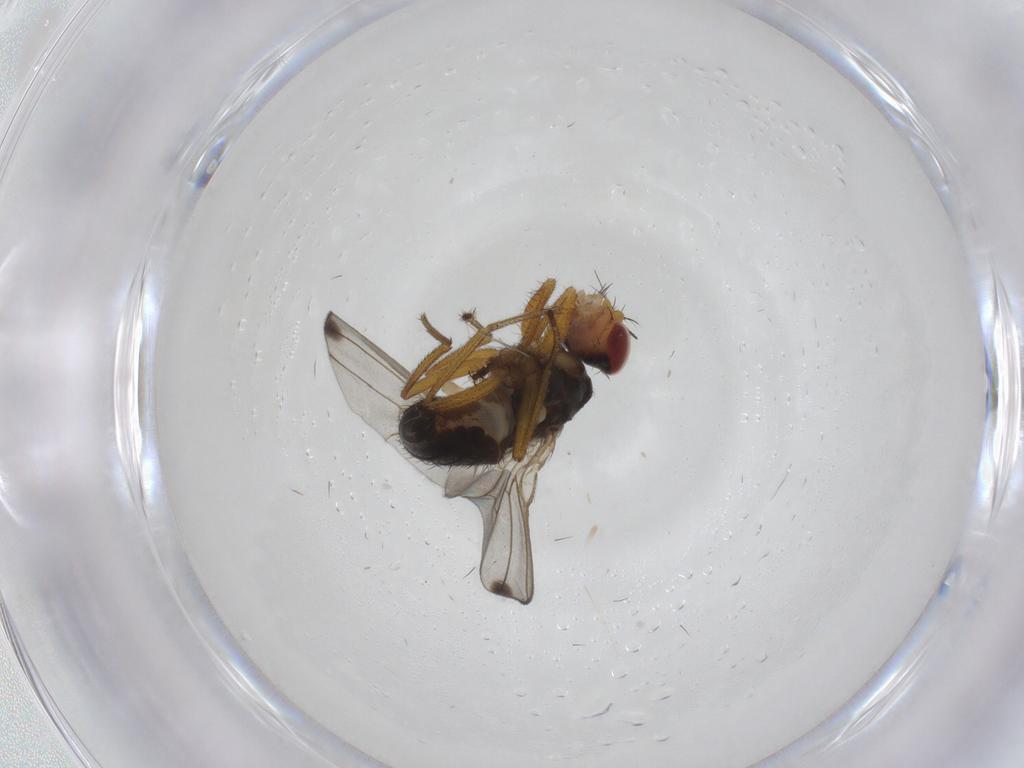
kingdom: Animalia
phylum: Arthropoda
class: Insecta
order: Diptera
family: Drosophilidae
